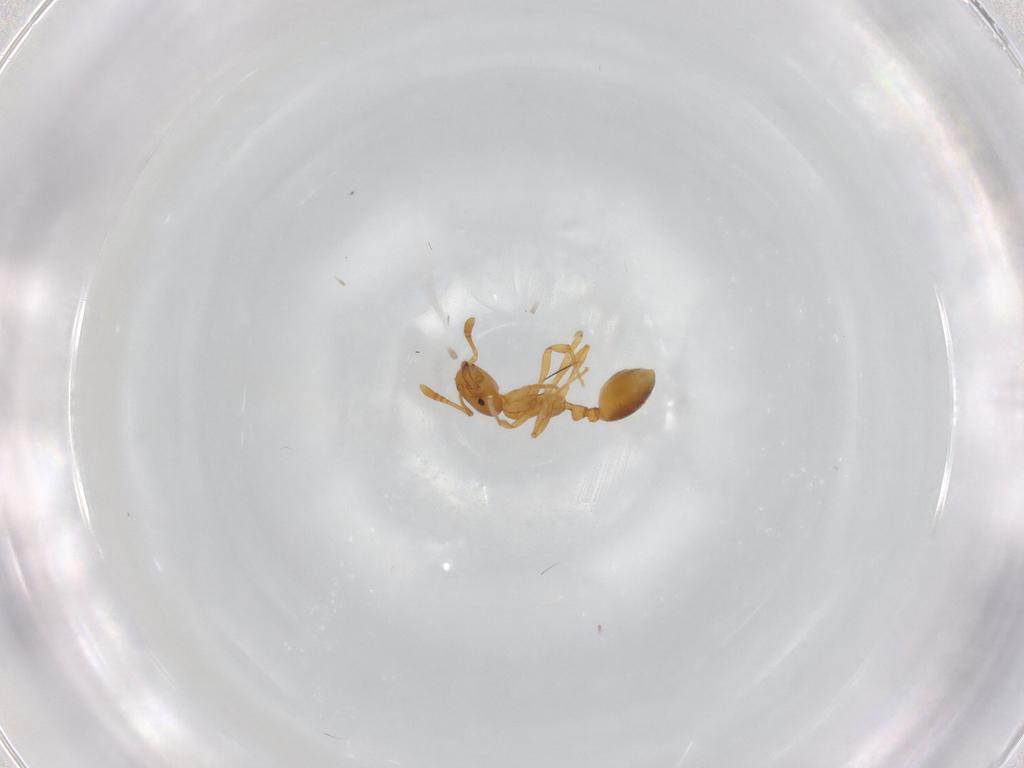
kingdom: Animalia
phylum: Arthropoda
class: Insecta
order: Hymenoptera
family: Formicidae
